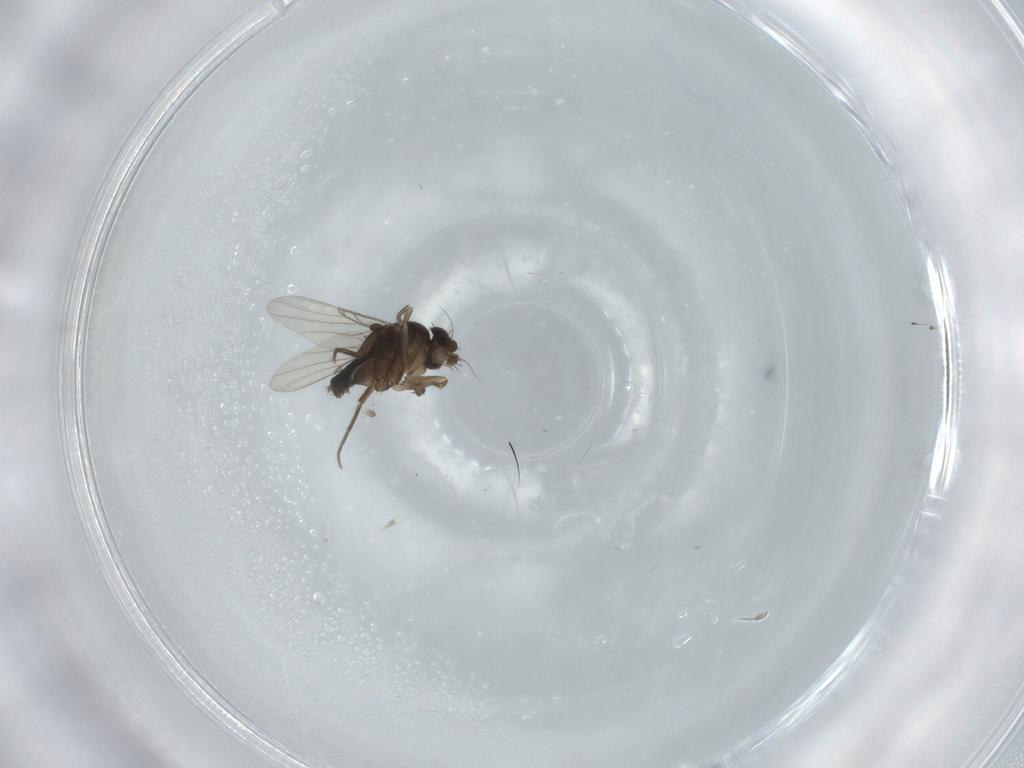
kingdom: Animalia
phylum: Arthropoda
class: Insecta
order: Diptera
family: Phoridae
